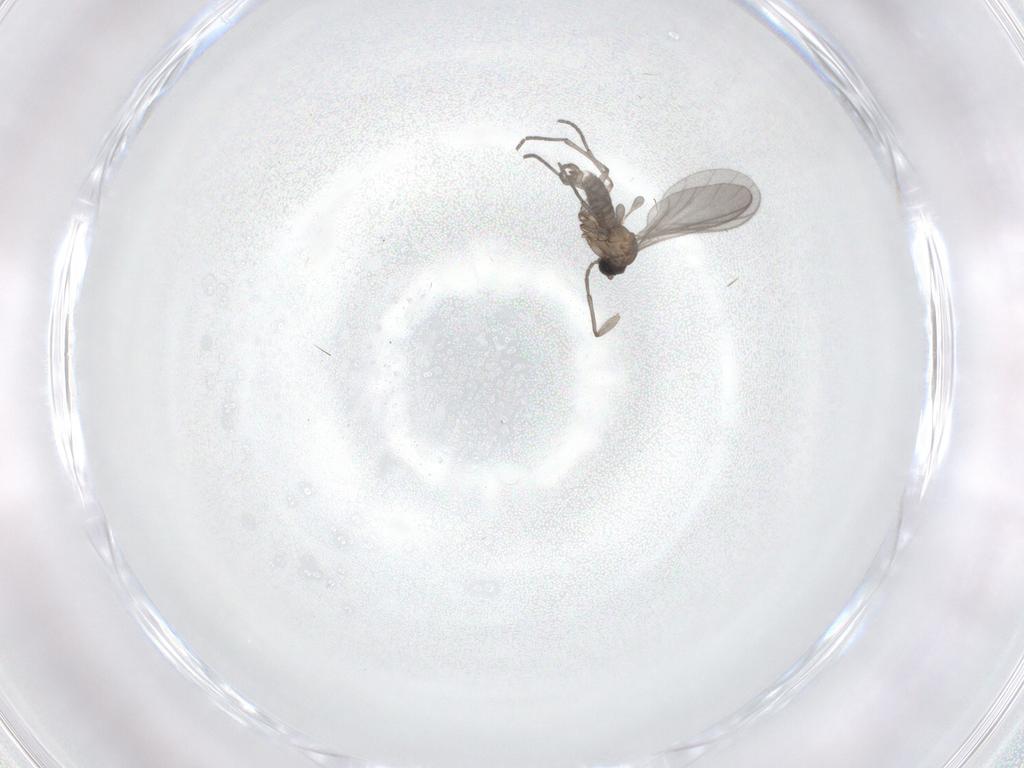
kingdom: Animalia
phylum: Arthropoda
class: Insecta
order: Diptera
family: Sciaridae
